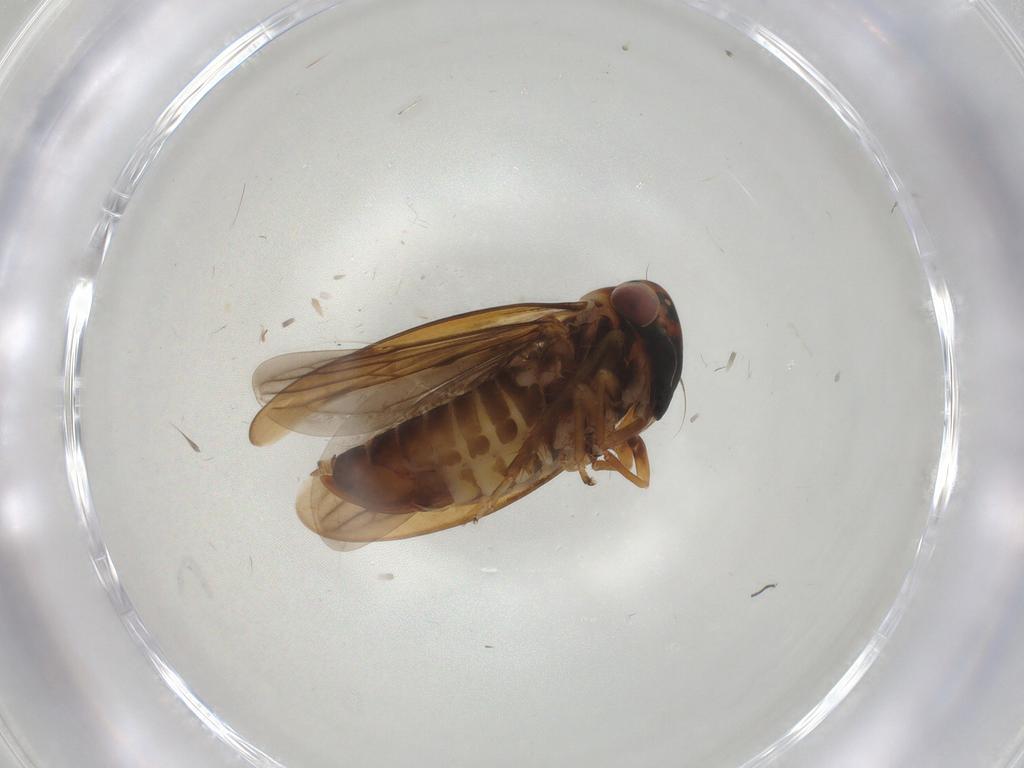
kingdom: Animalia
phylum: Arthropoda
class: Insecta
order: Hemiptera
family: Cicadellidae
